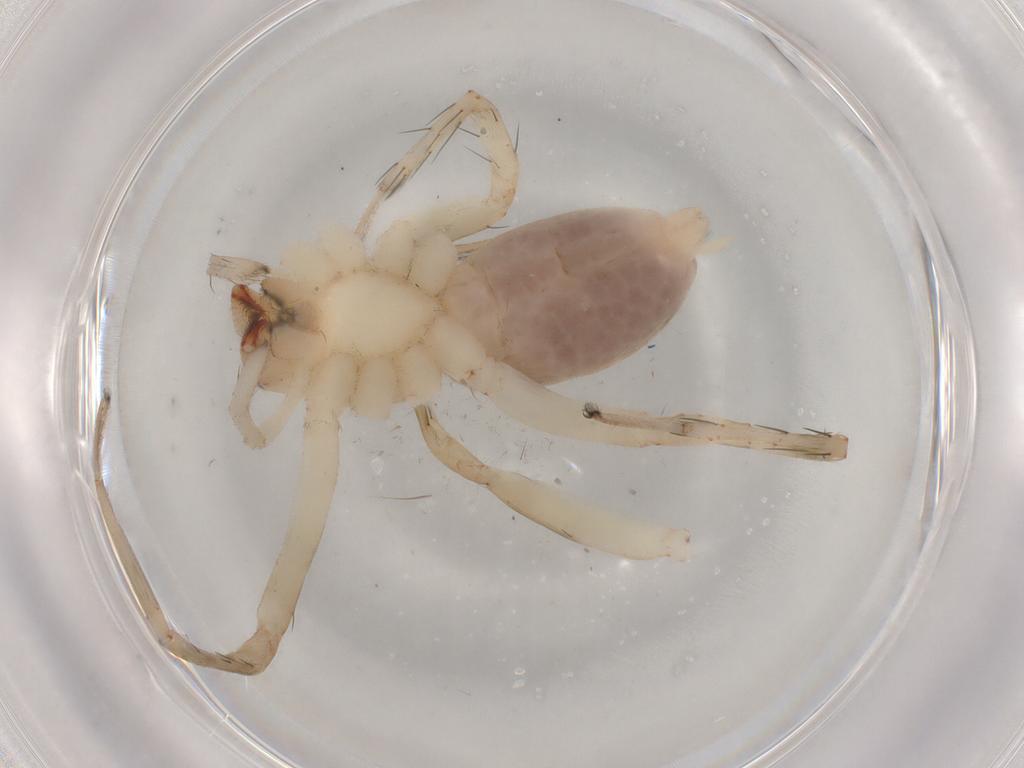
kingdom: Animalia
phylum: Arthropoda
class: Arachnida
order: Araneae
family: Anyphaenidae
